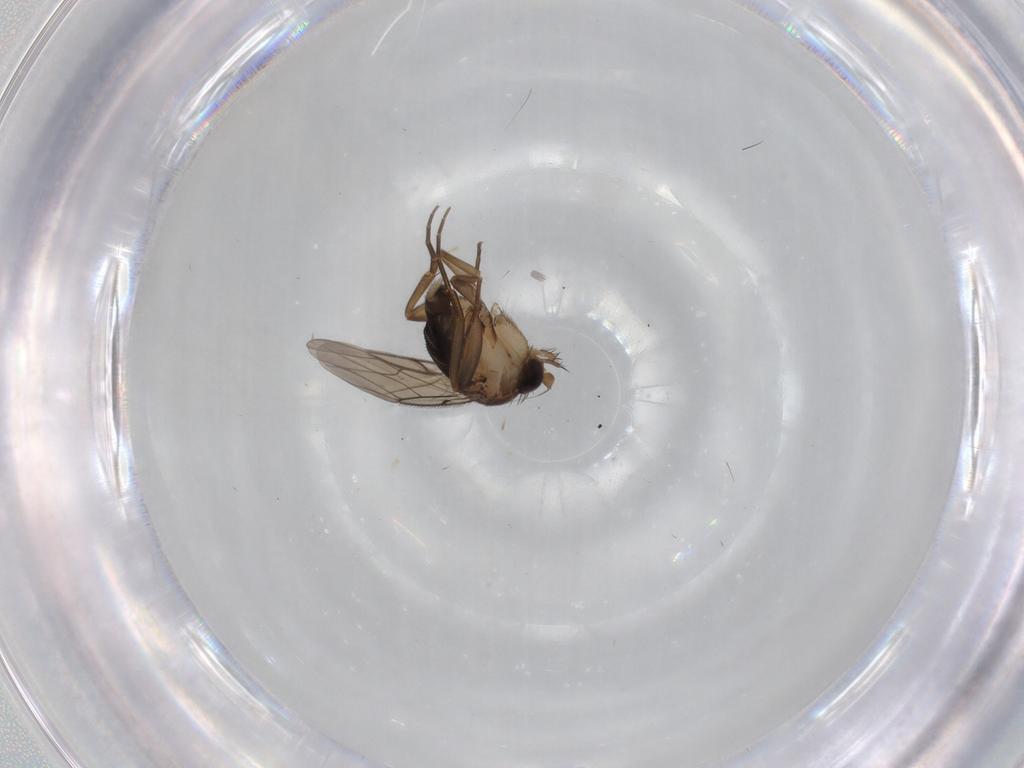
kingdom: Animalia
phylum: Arthropoda
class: Insecta
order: Diptera
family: Phoridae
